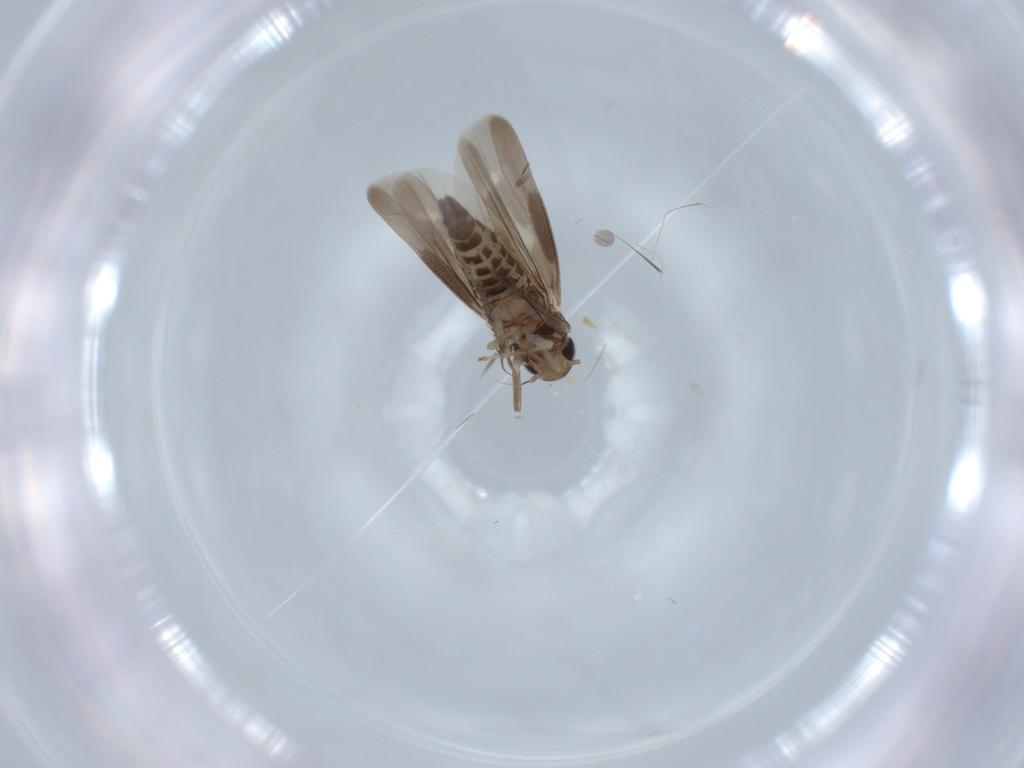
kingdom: Animalia
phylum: Arthropoda
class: Insecta
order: Hemiptera
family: Cicadellidae
